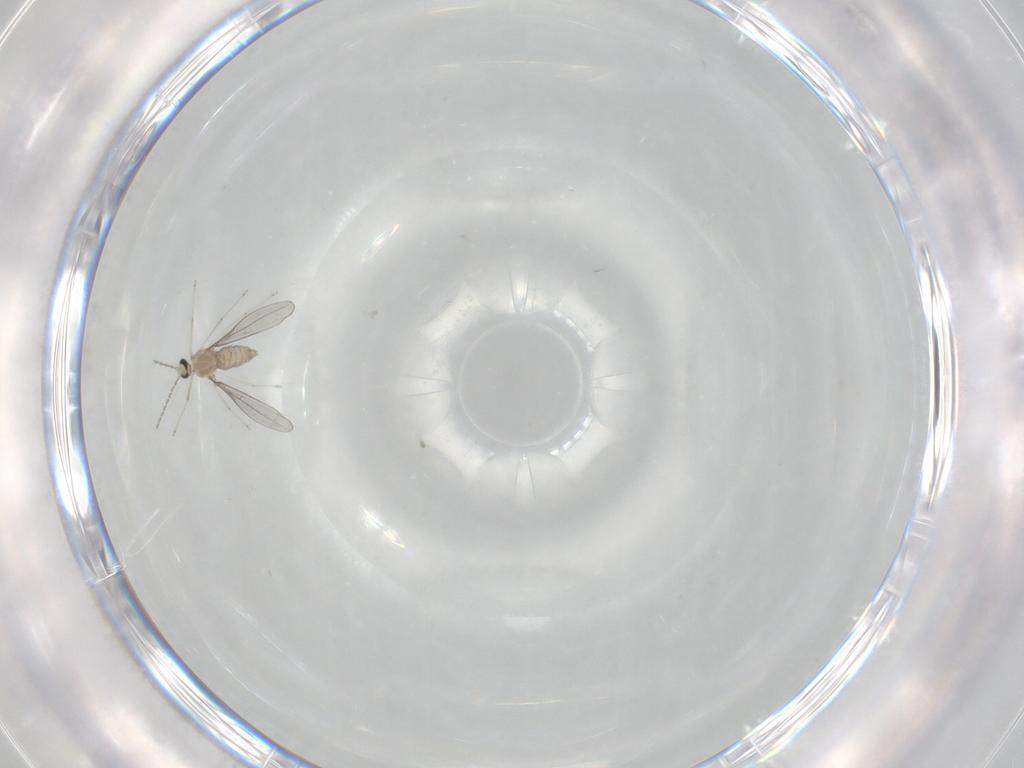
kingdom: Animalia
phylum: Arthropoda
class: Insecta
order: Diptera
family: Cecidomyiidae
